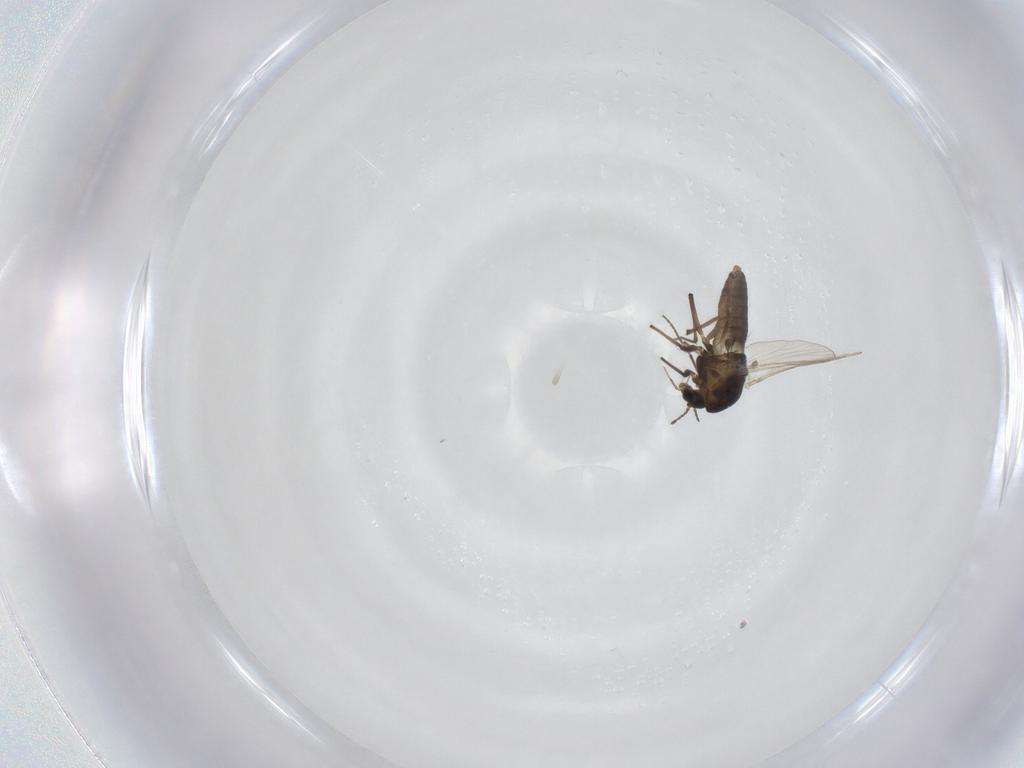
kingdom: Animalia
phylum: Arthropoda
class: Insecta
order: Diptera
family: Chironomidae
